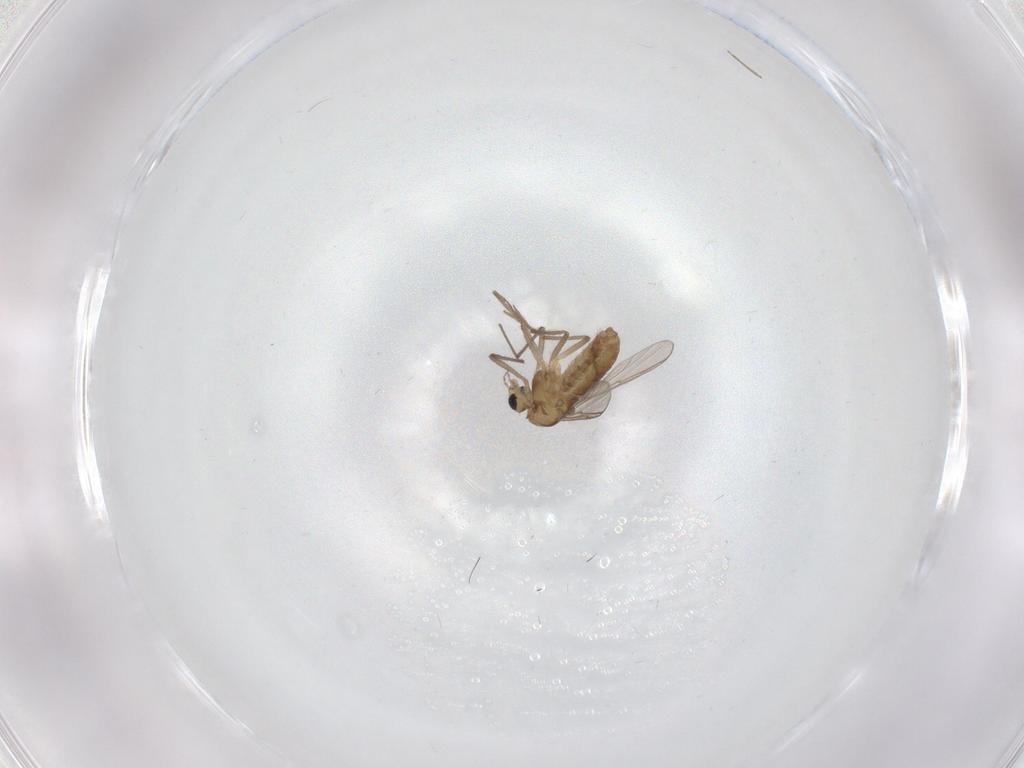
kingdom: Animalia
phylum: Arthropoda
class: Insecta
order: Diptera
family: Chironomidae
